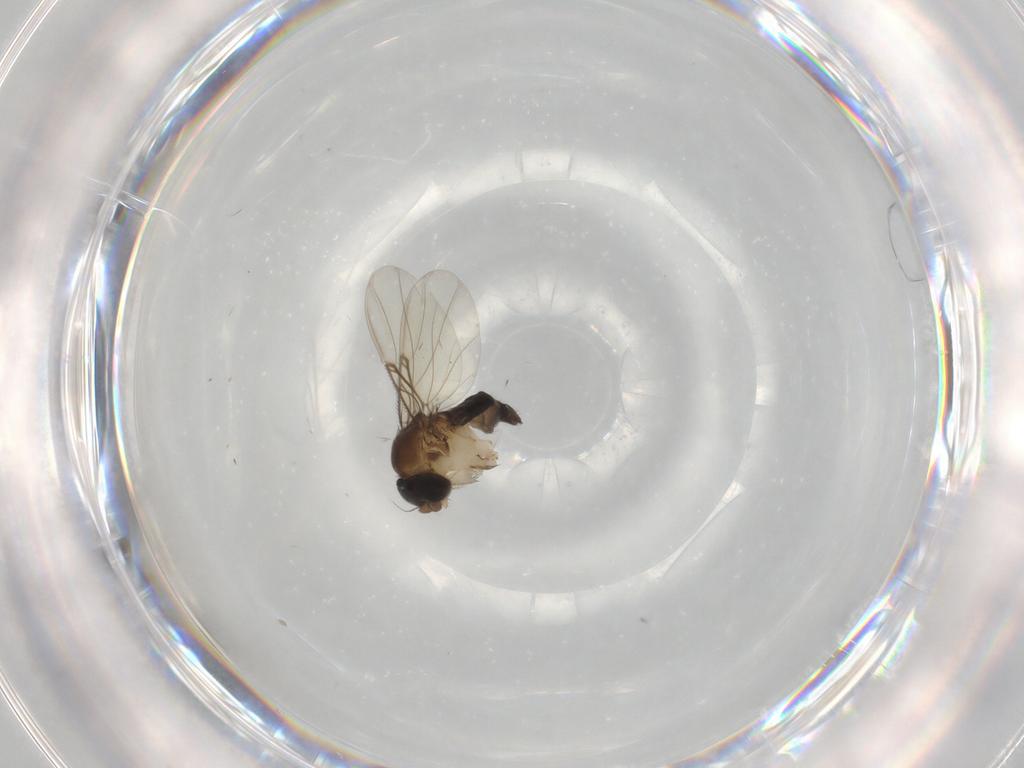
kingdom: Animalia
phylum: Arthropoda
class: Insecta
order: Diptera
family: Phoridae
